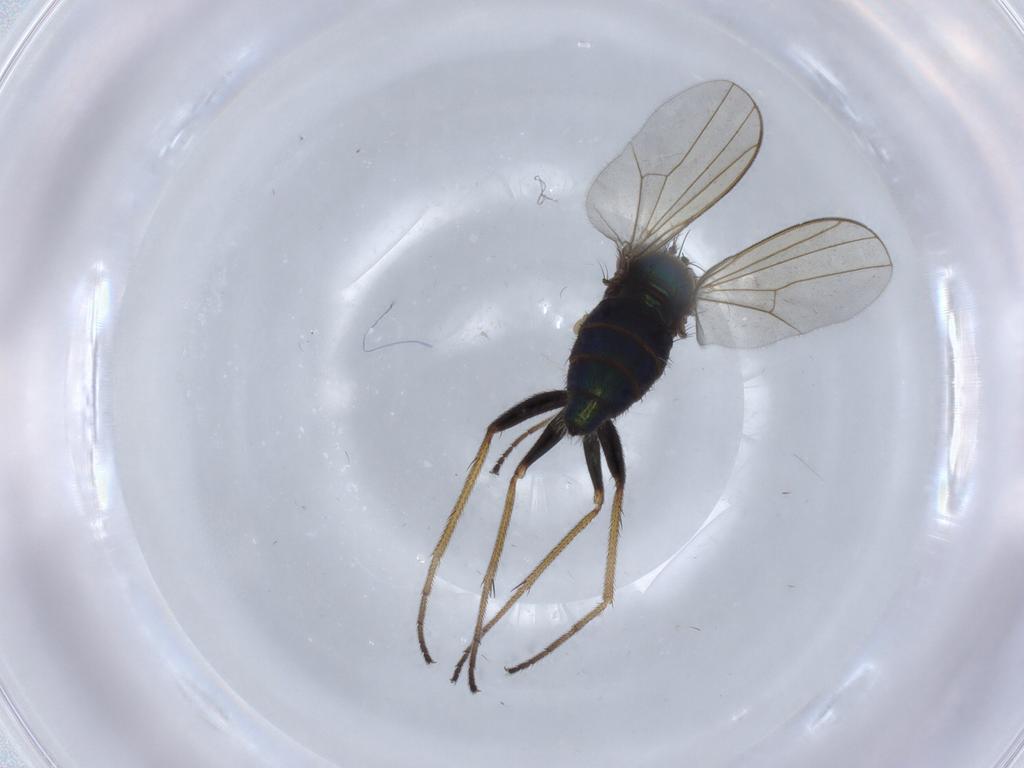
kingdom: Animalia
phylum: Arthropoda
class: Insecta
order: Diptera
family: Dolichopodidae
